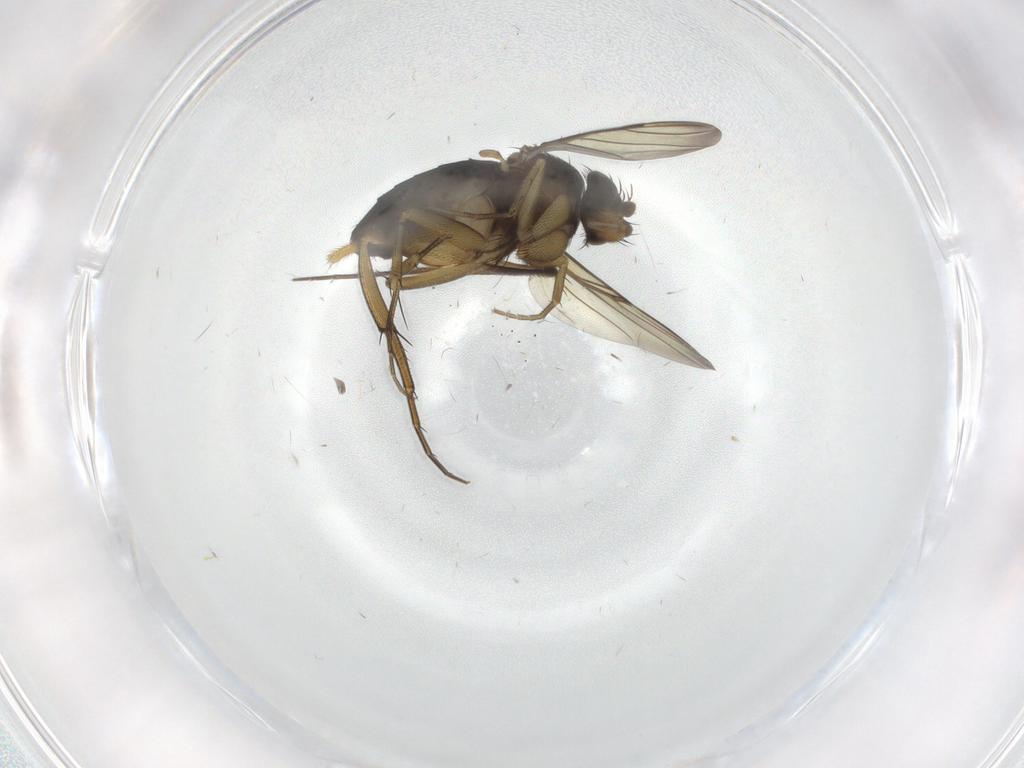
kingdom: Animalia
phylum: Arthropoda
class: Insecta
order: Diptera
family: Phoridae
